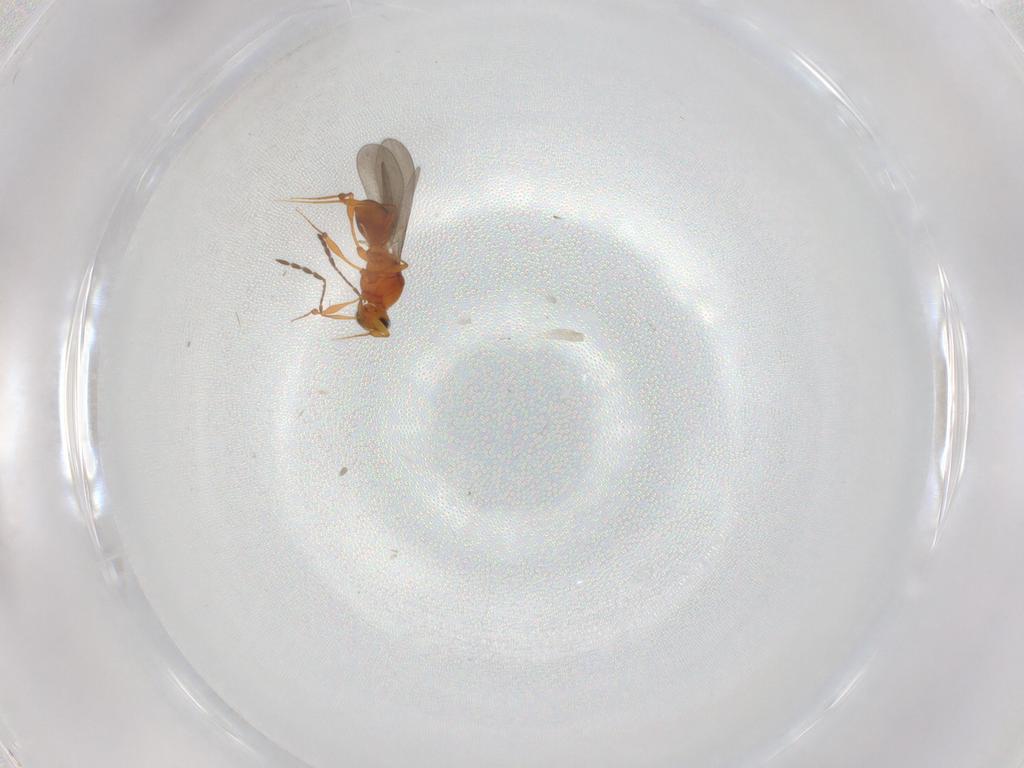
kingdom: Animalia
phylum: Arthropoda
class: Insecta
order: Hymenoptera
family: Platygastridae
